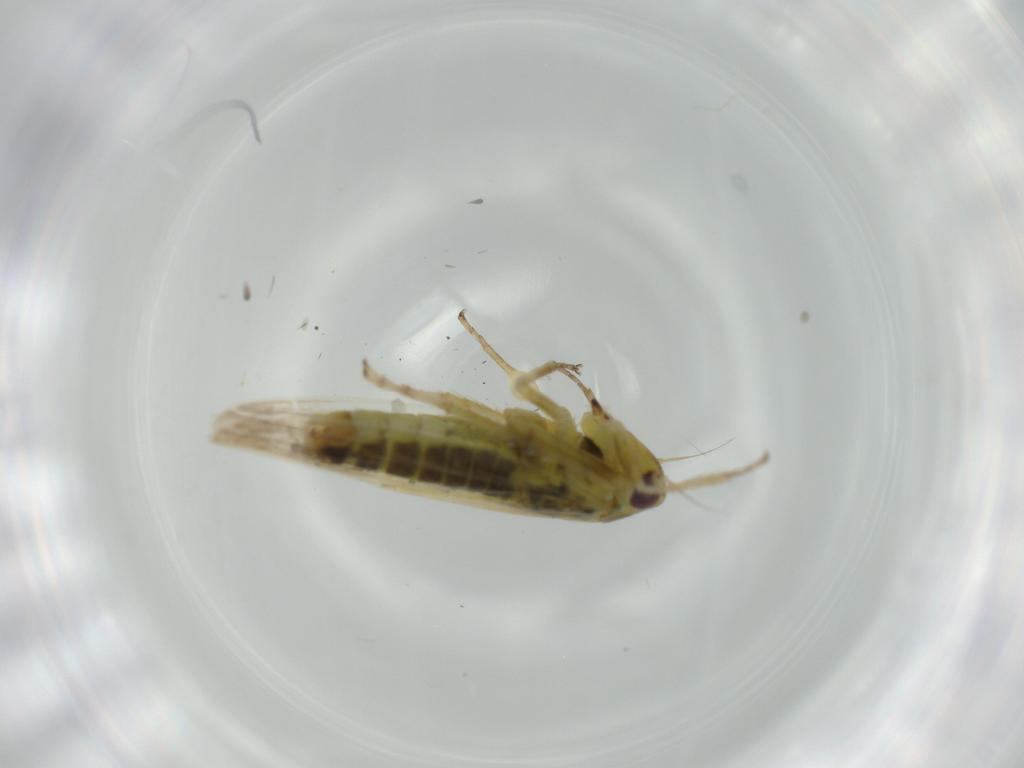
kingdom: Animalia
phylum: Arthropoda
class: Insecta
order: Hemiptera
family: Cicadellidae
